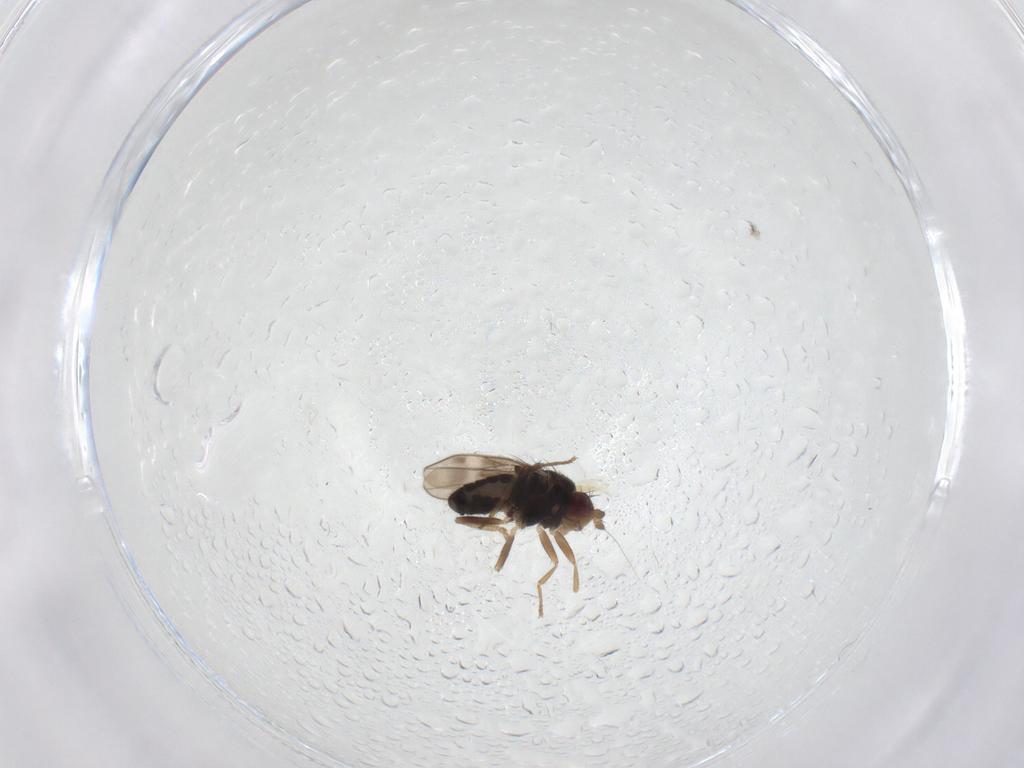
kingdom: Animalia
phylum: Arthropoda
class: Insecta
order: Diptera
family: Sphaeroceridae
